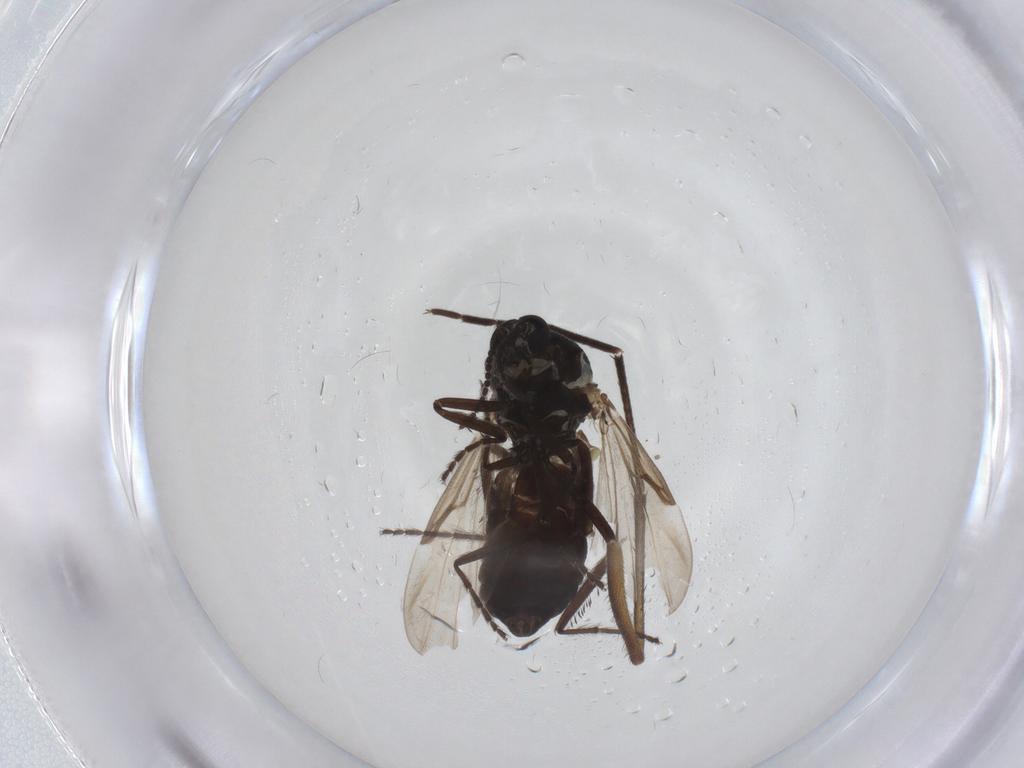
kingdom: Animalia
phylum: Arthropoda
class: Insecta
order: Diptera
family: Mycetophilidae
